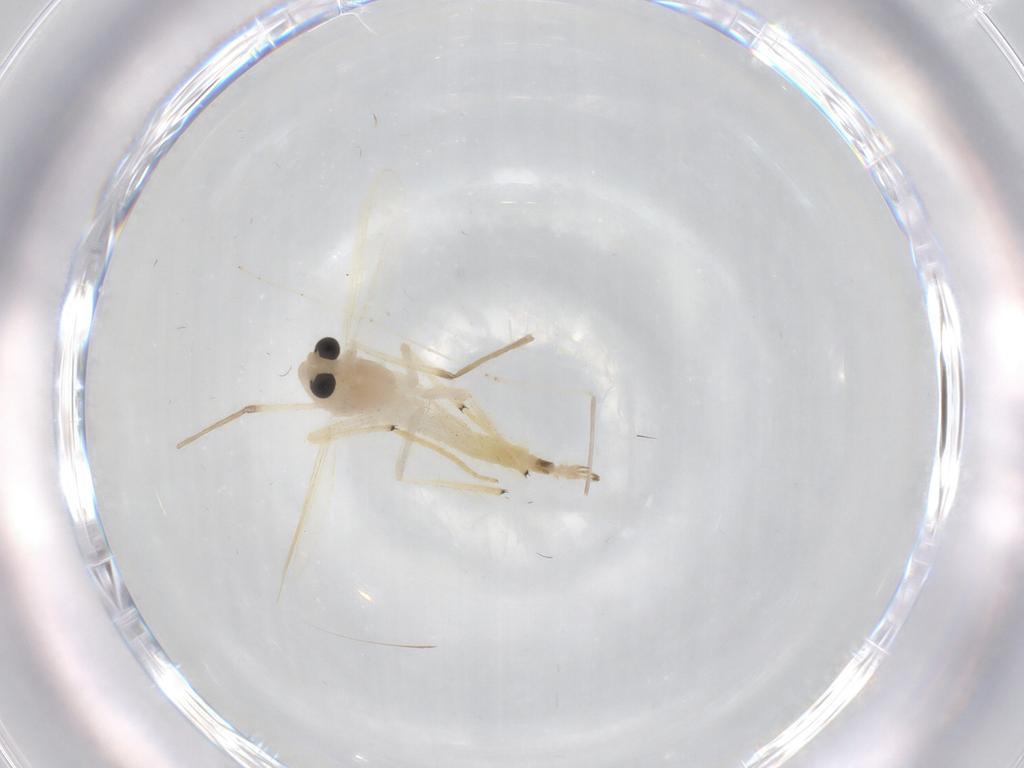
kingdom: Animalia
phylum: Arthropoda
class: Insecta
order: Diptera
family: Chironomidae
